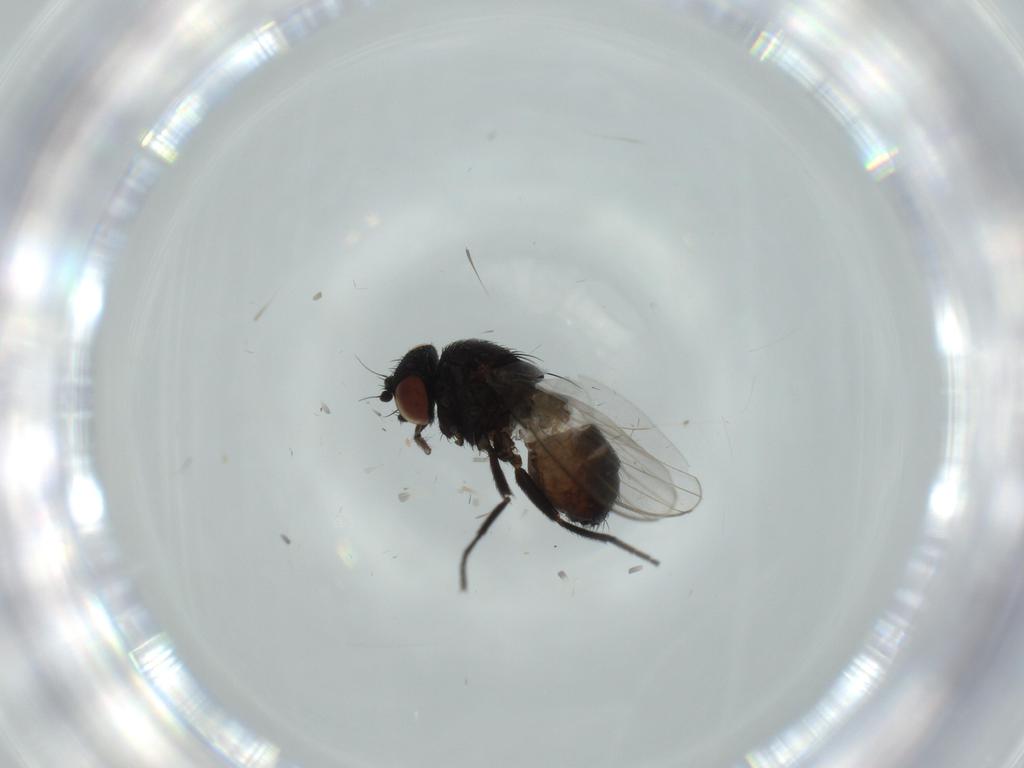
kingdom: Animalia
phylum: Arthropoda
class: Insecta
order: Diptera
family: Milichiidae
